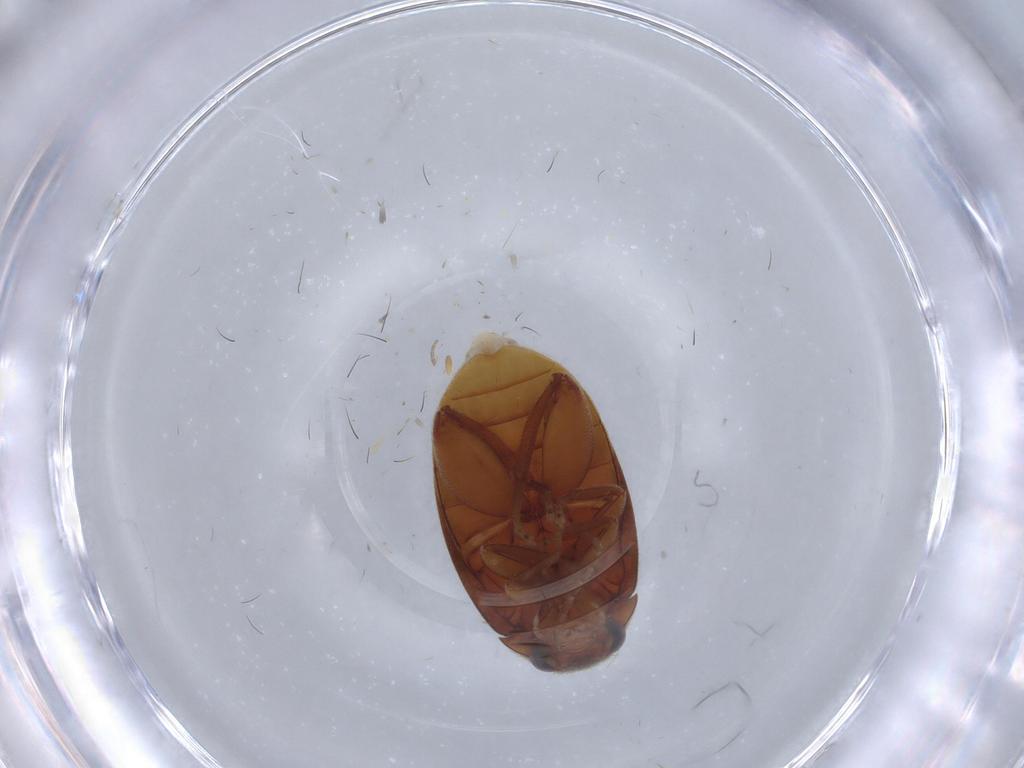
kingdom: Animalia
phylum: Arthropoda
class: Insecta
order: Coleoptera
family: Scirtidae
